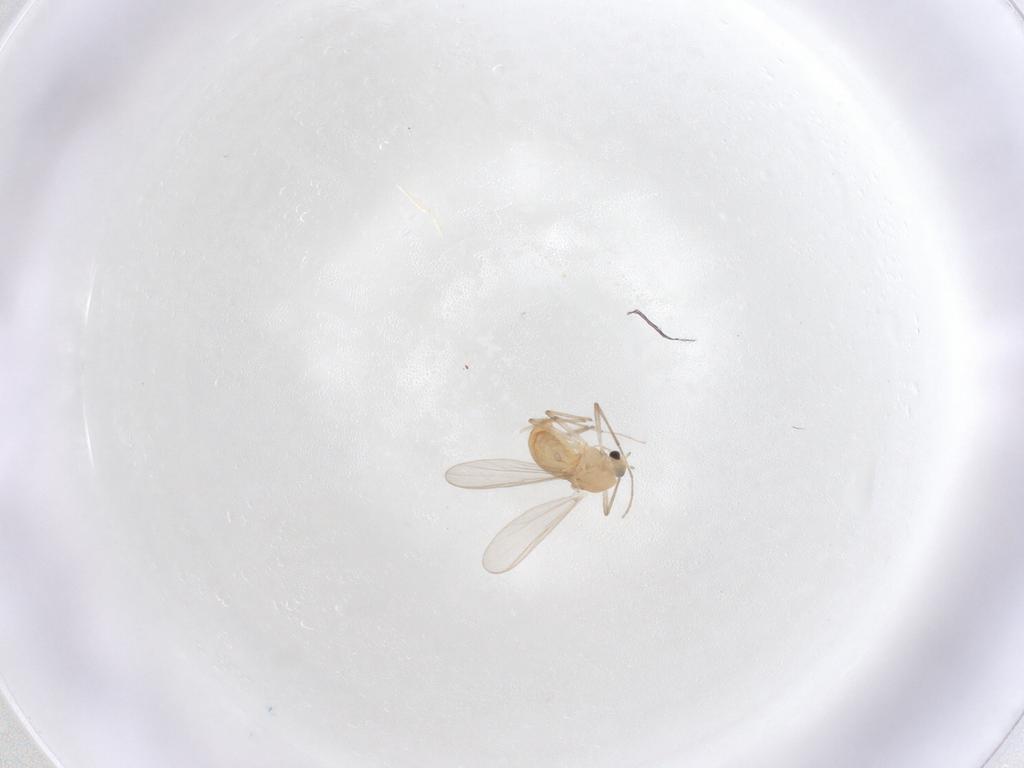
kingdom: Animalia
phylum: Arthropoda
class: Insecta
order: Diptera
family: Chironomidae
